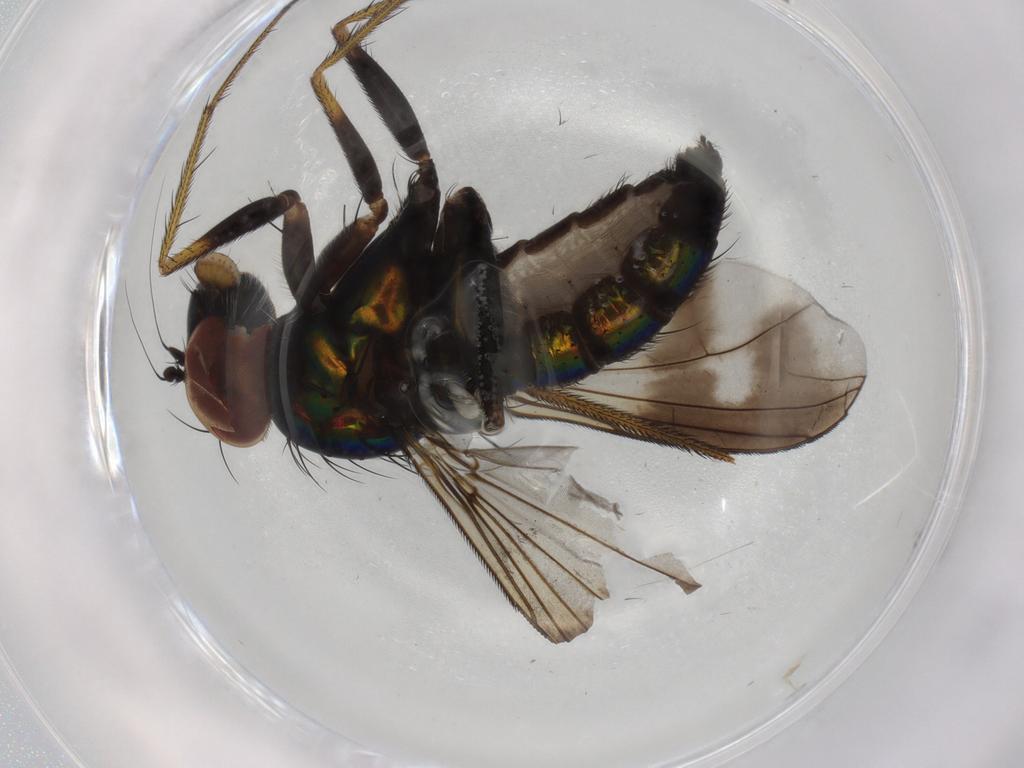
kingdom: Animalia
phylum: Arthropoda
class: Insecta
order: Diptera
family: Dolichopodidae
